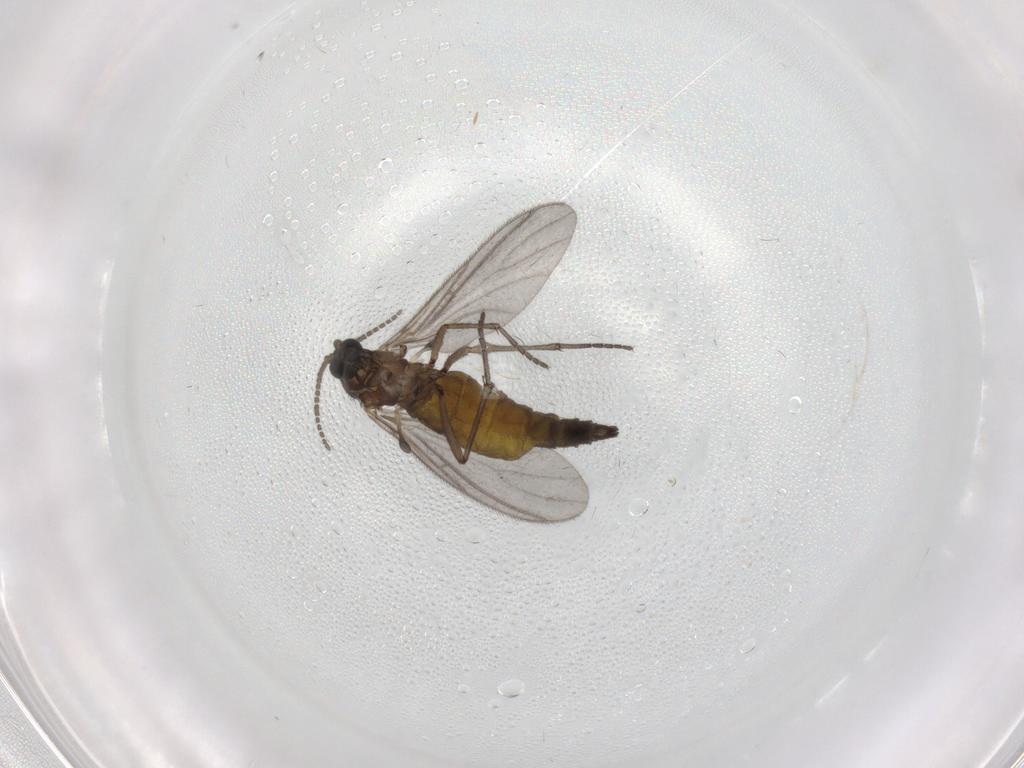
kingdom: Animalia
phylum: Arthropoda
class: Insecta
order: Diptera
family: Sciaridae
